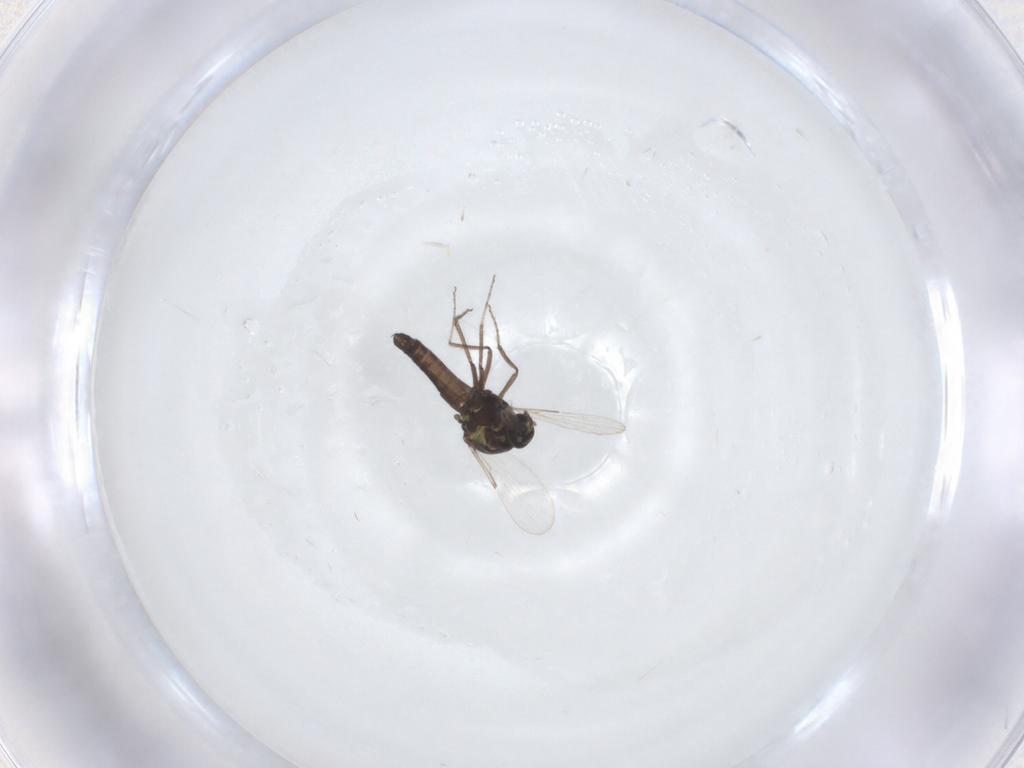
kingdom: Animalia
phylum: Arthropoda
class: Insecta
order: Diptera
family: Ceratopogonidae
